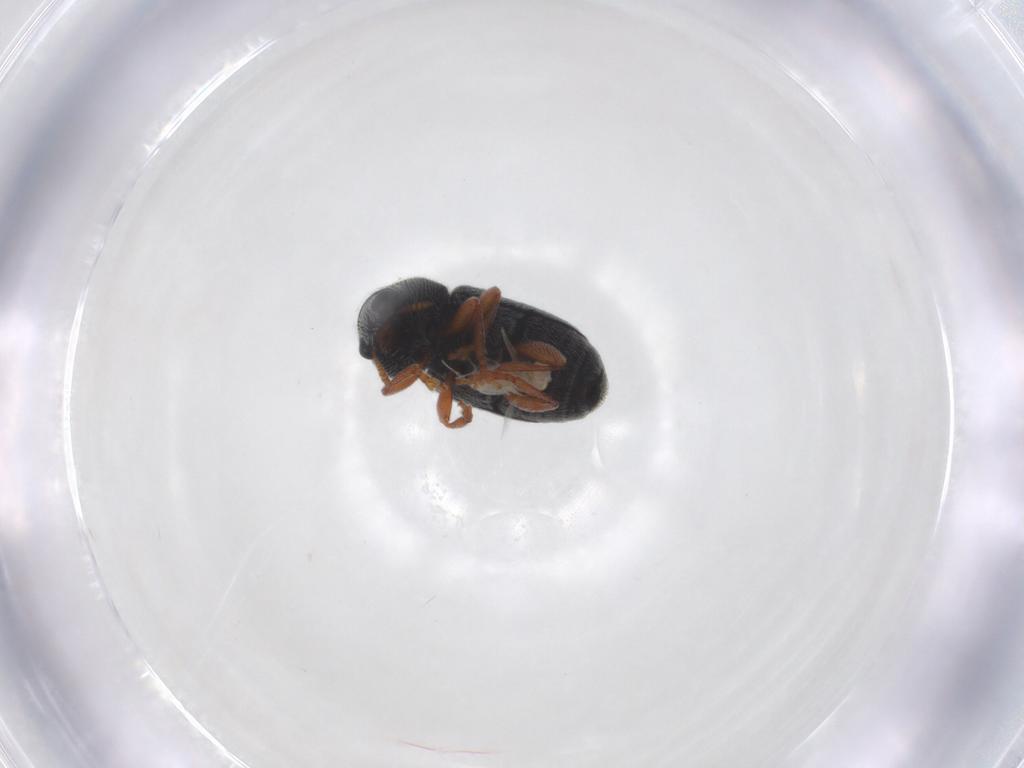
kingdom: Animalia
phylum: Arthropoda
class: Insecta
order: Coleoptera
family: Anthribidae
